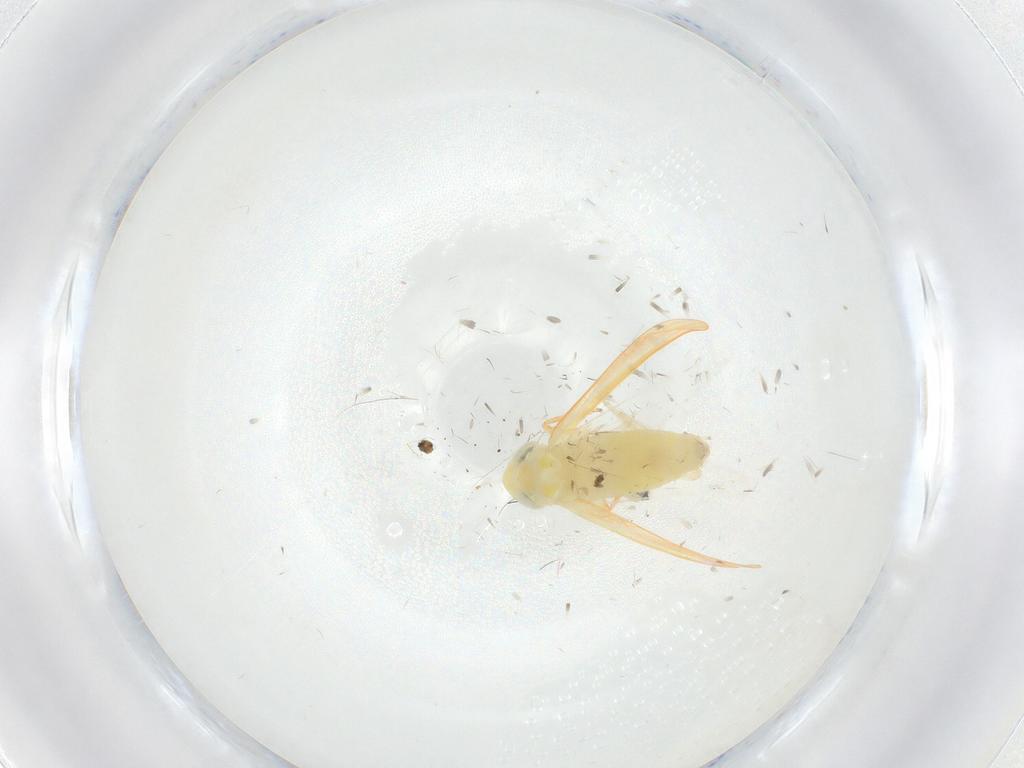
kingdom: Animalia
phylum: Arthropoda
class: Insecta
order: Hemiptera
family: Cicadellidae
